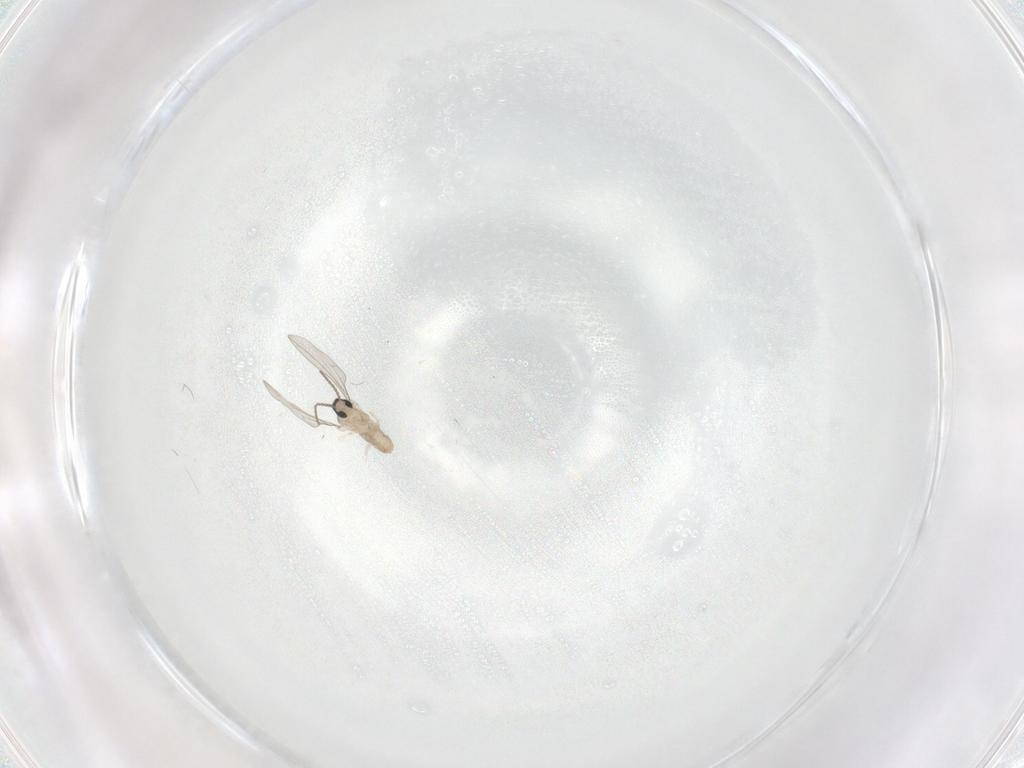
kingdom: Animalia
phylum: Arthropoda
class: Insecta
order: Diptera
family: Cecidomyiidae
